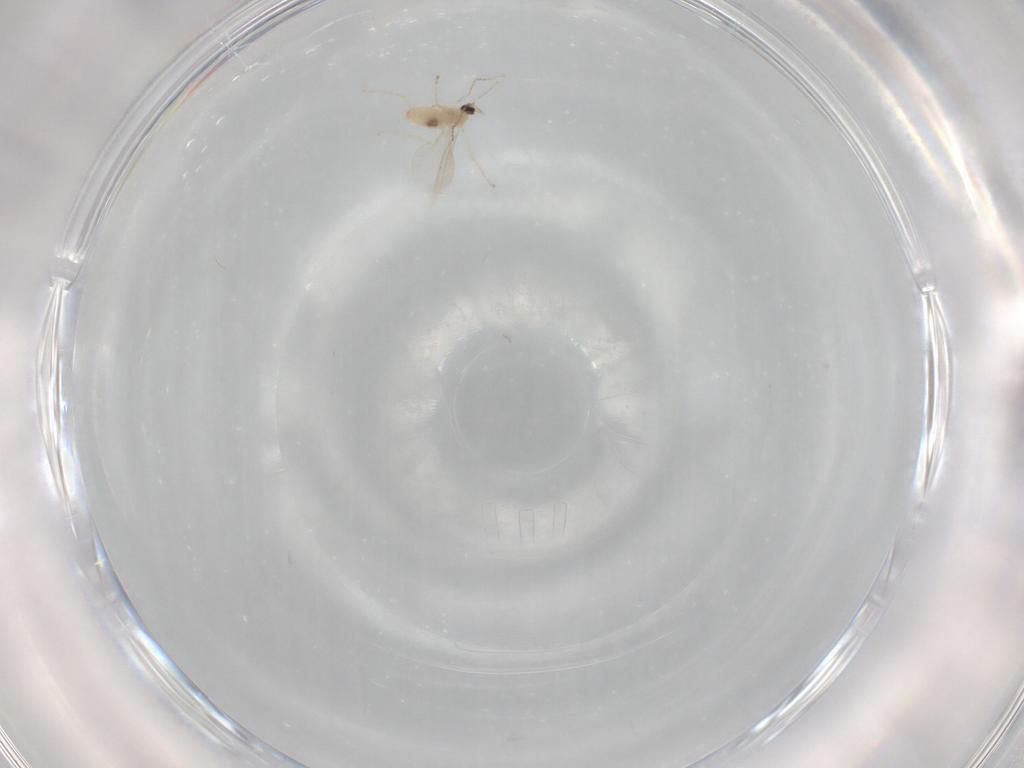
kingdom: Animalia
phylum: Arthropoda
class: Insecta
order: Diptera
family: Cecidomyiidae
